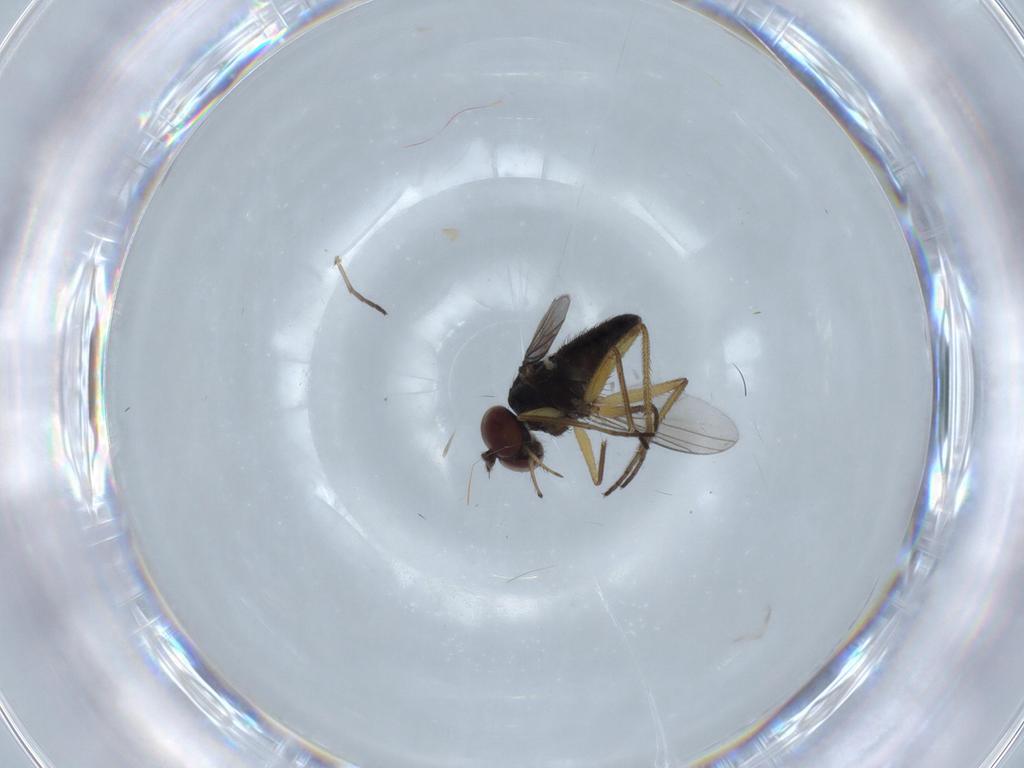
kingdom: Animalia
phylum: Arthropoda
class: Insecta
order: Diptera
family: Dolichopodidae
